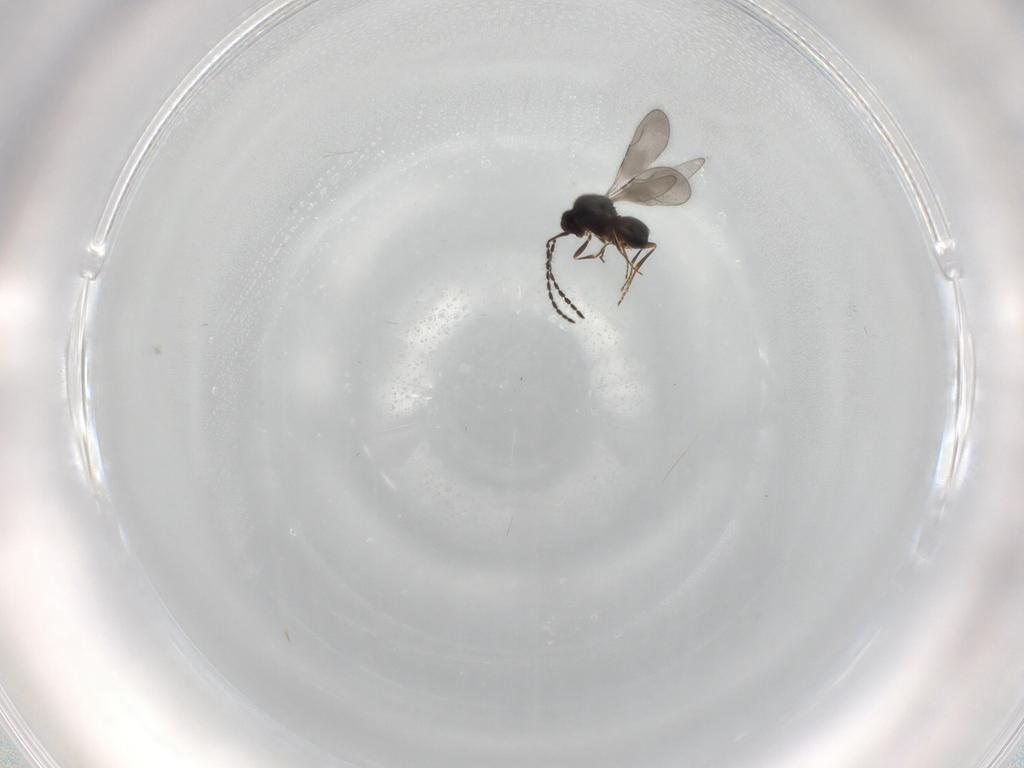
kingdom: Animalia
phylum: Arthropoda
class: Insecta
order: Hymenoptera
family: Ceraphronidae
